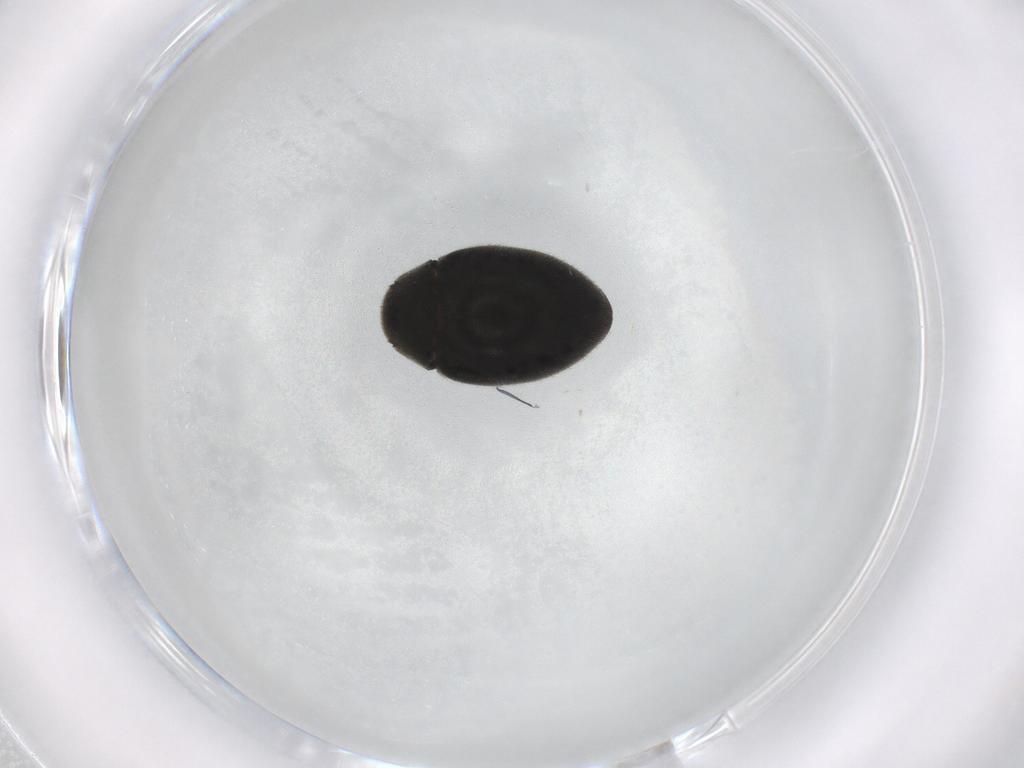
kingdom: Animalia
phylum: Arthropoda
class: Insecta
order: Coleoptera
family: Carabidae
